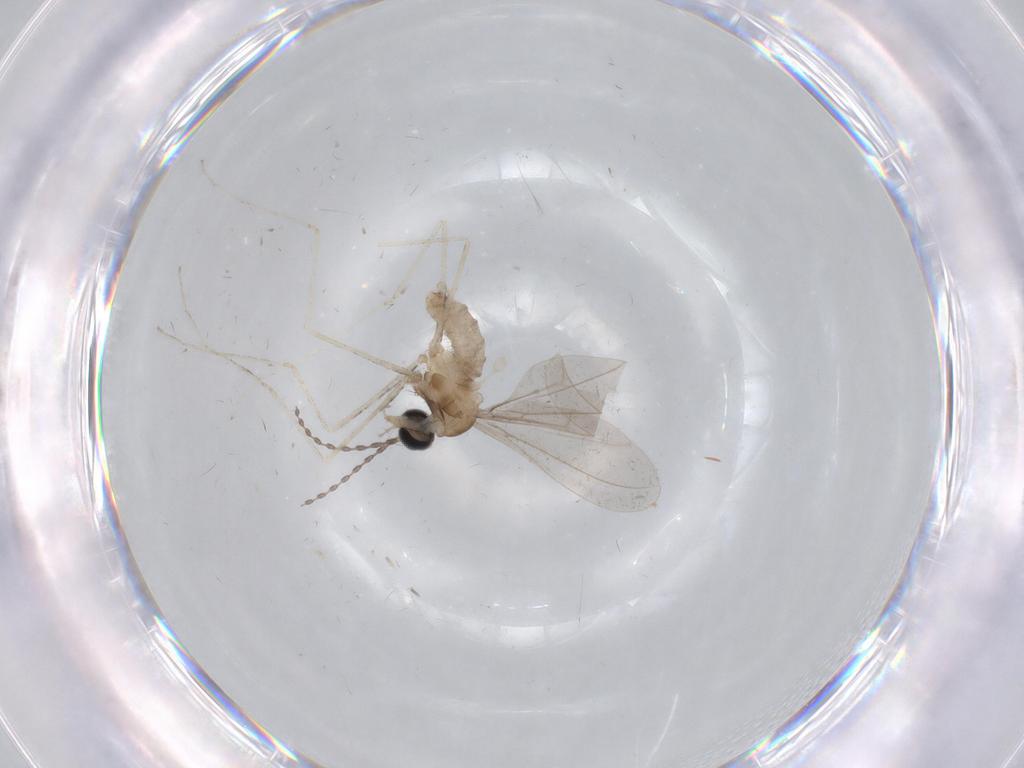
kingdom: Animalia
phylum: Arthropoda
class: Insecta
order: Diptera
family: Cecidomyiidae
